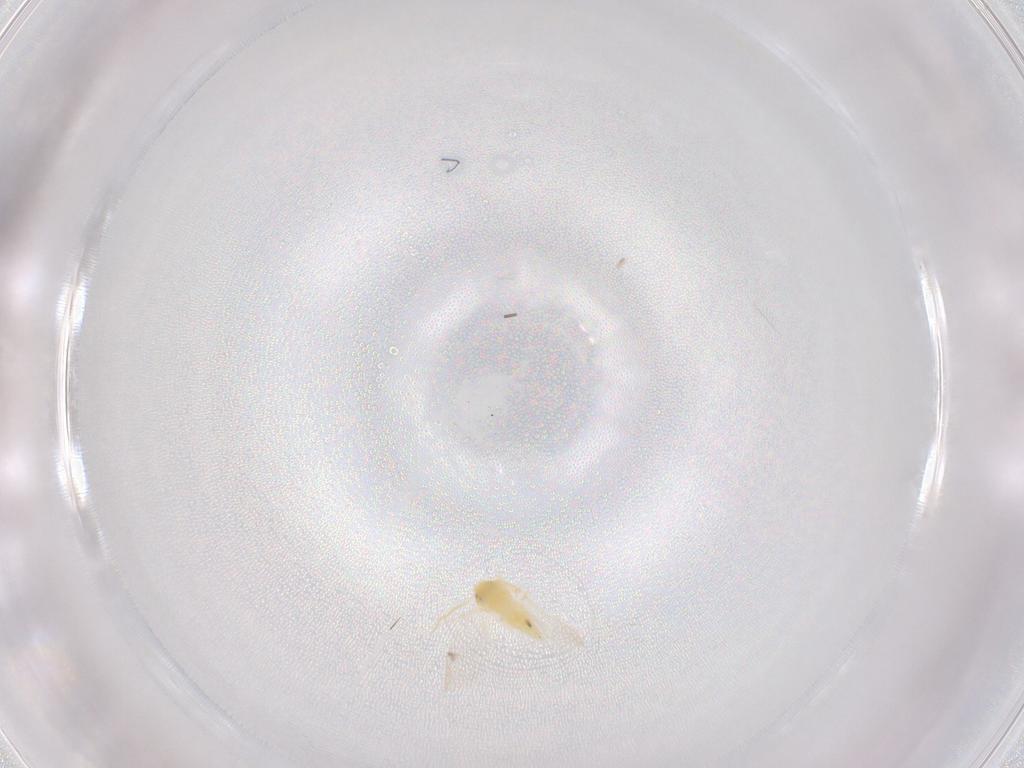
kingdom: Animalia
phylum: Arthropoda
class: Insecta
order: Hemiptera
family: Aleyrodidae
